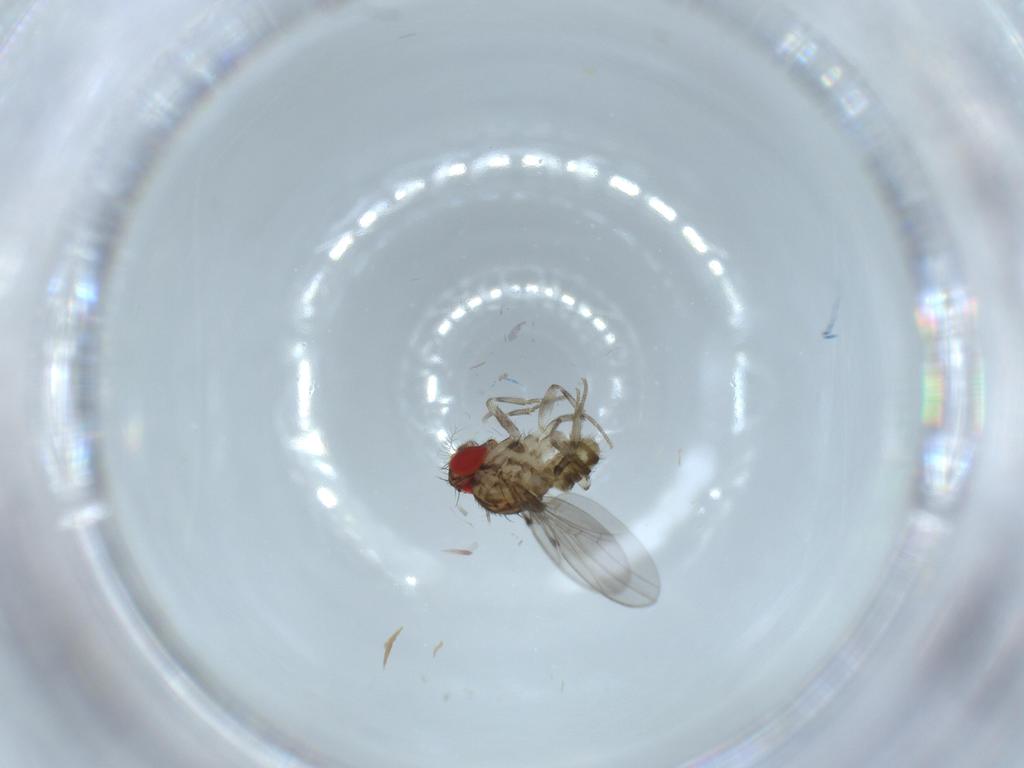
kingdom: Animalia
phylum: Arthropoda
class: Insecta
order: Diptera
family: Drosophilidae
